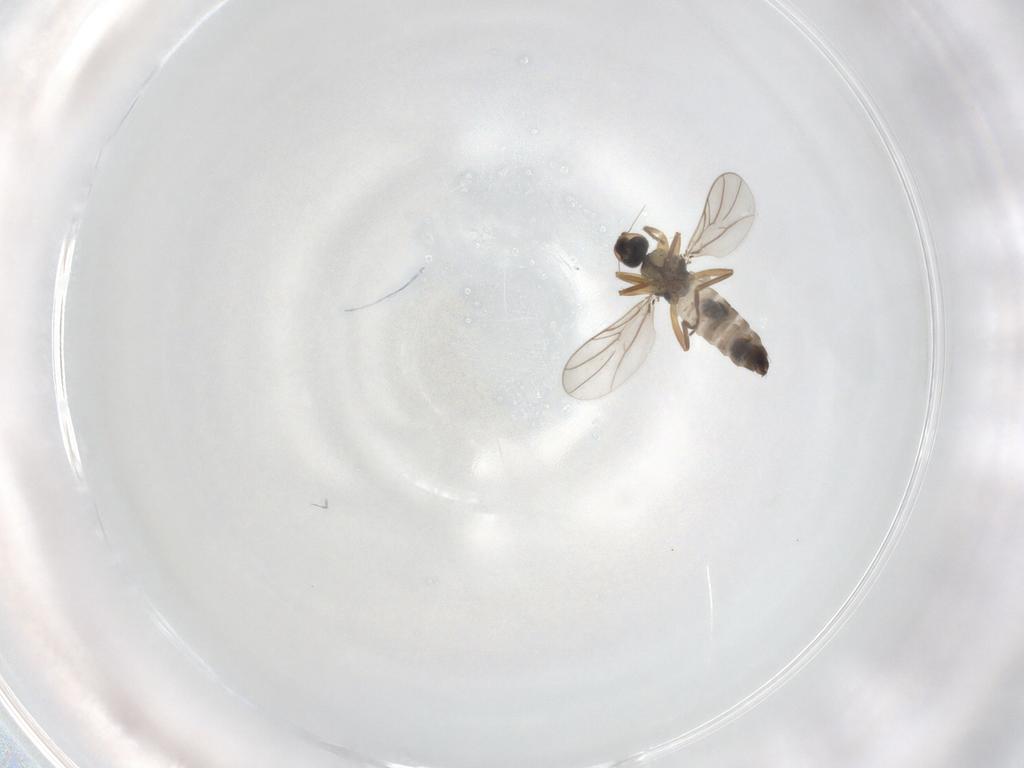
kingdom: Animalia
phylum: Arthropoda
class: Insecta
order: Diptera
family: Hybotidae
